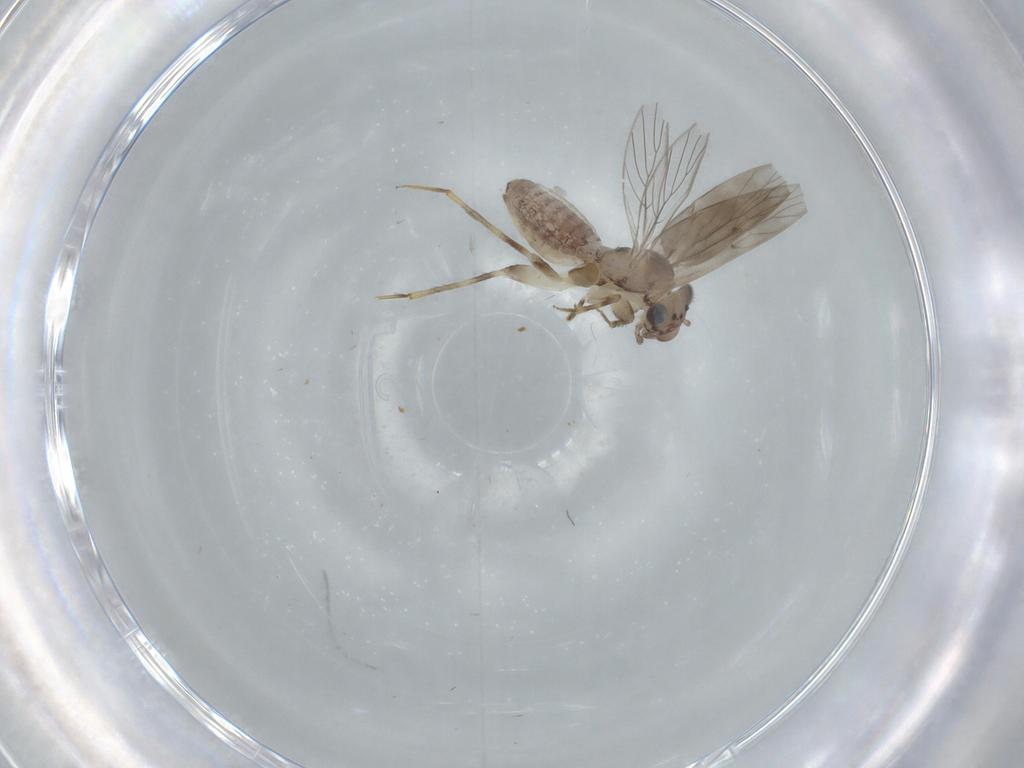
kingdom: Animalia
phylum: Arthropoda
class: Insecta
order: Psocodea
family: Lepidopsocidae
